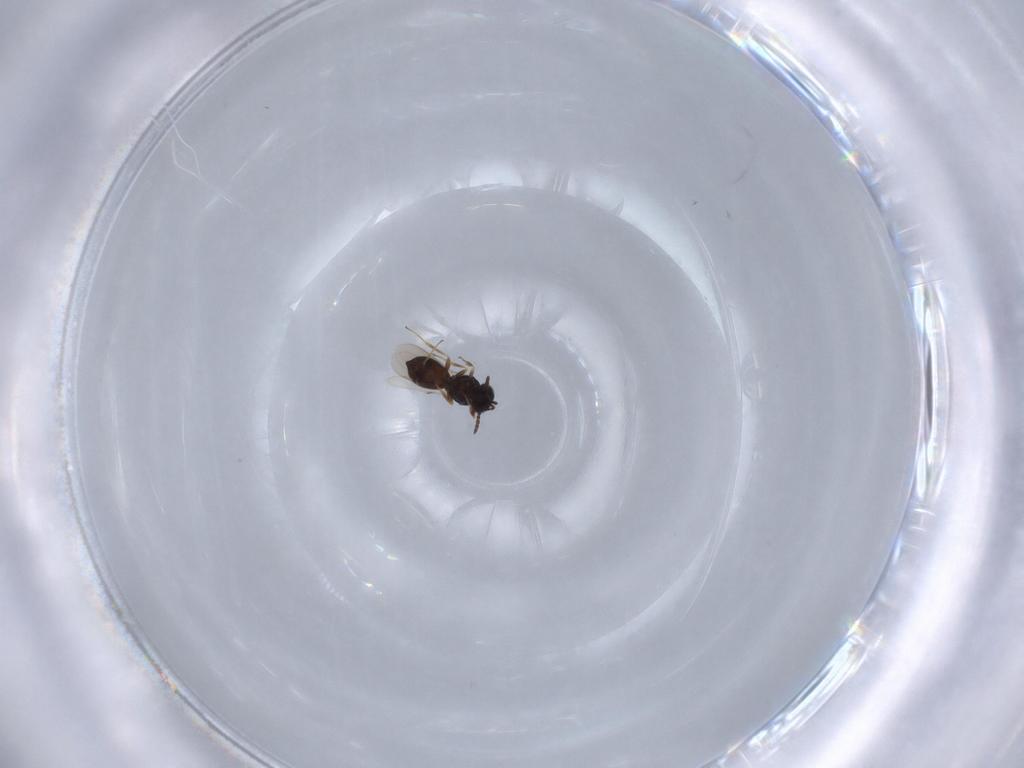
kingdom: Animalia
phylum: Arthropoda
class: Insecta
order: Hymenoptera
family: Scelionidae
